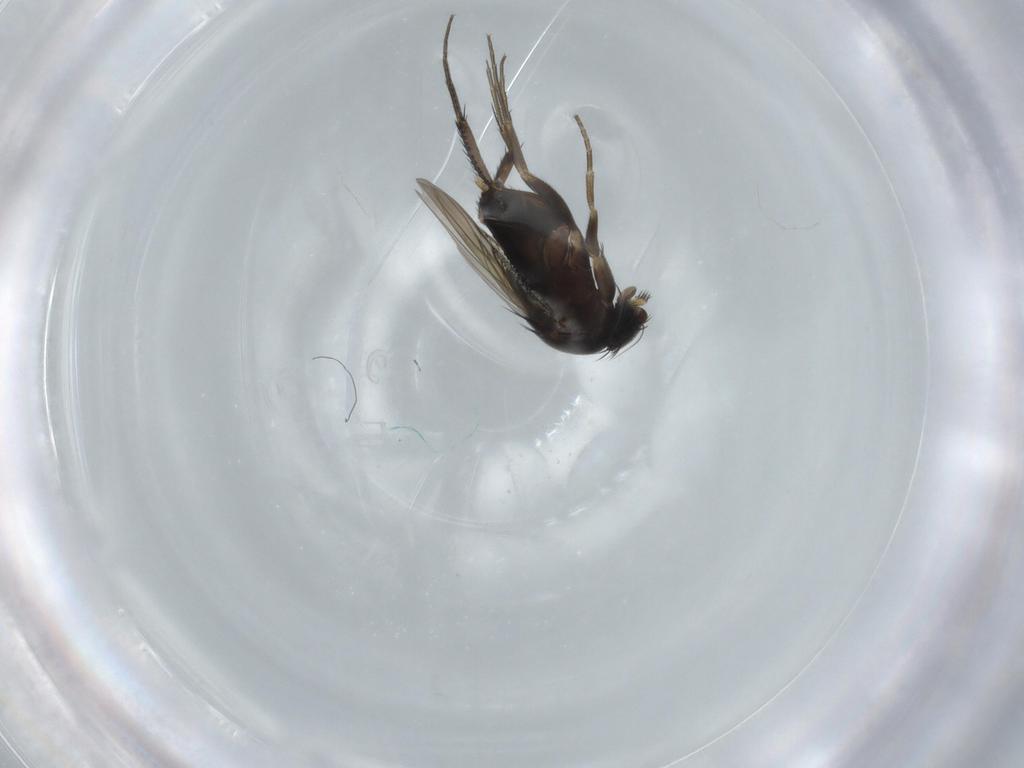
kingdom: Animalia
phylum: Arthropoda
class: Insecta
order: Diptera
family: Phoridae
